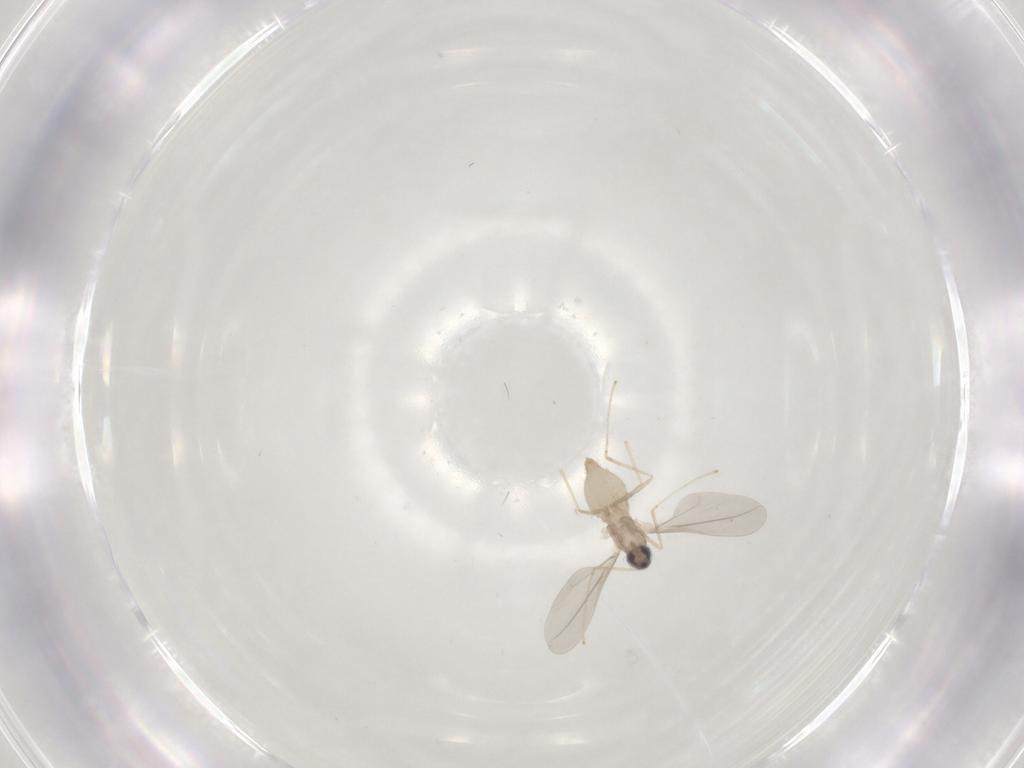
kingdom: Animalia
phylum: Arthropoda
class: Insecta
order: Diptera
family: Cecidomyiidae
